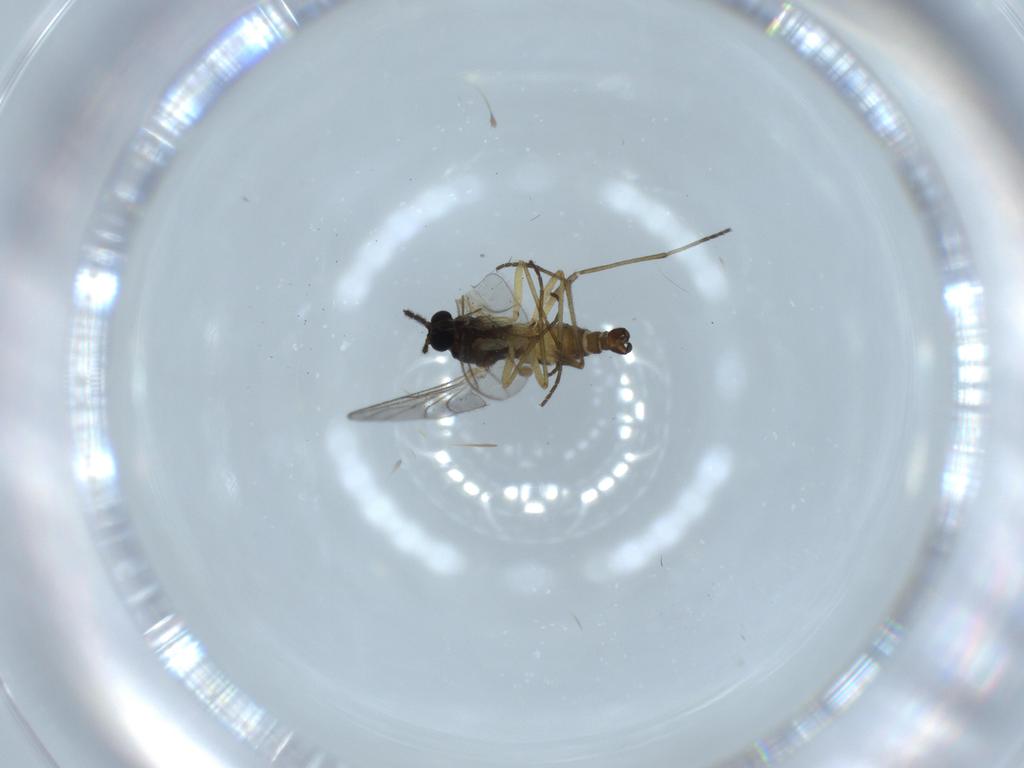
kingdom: Animalia
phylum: Arthropoda
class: Insecta
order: Diptera
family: Sciaridae
